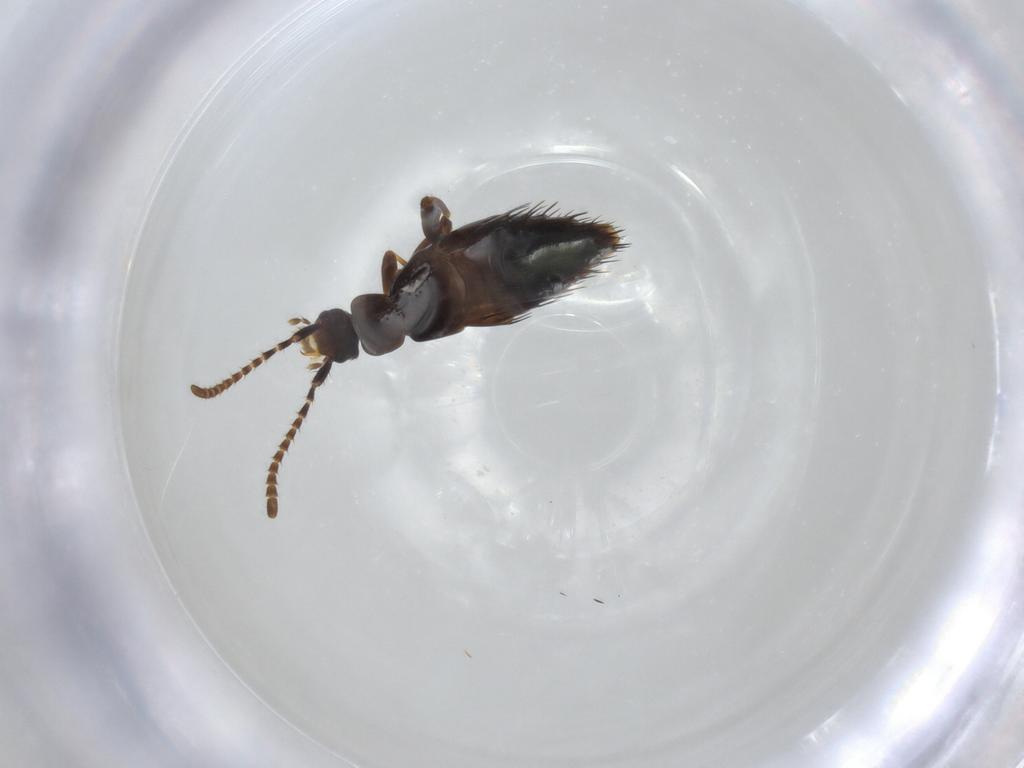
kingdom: Animalia
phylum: Arthropoda
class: Insecta
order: Coleoptera
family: Staphylinidae
